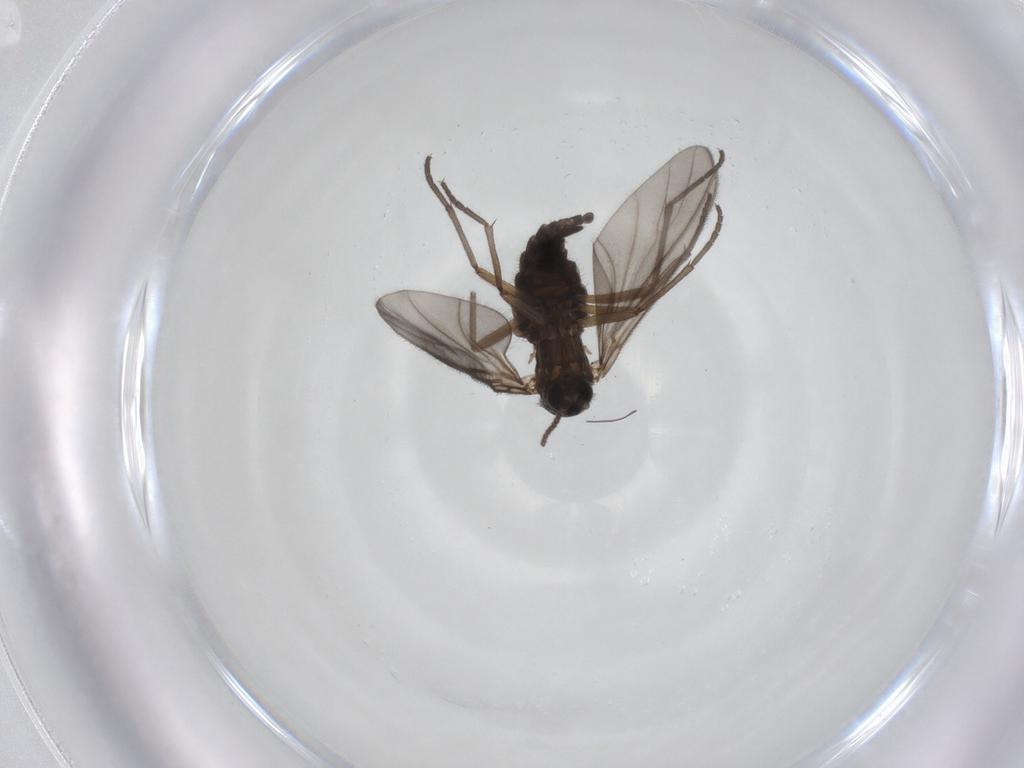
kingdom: Animalia
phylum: Arthropoda
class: Insecta
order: Diptera
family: Sciaridae
